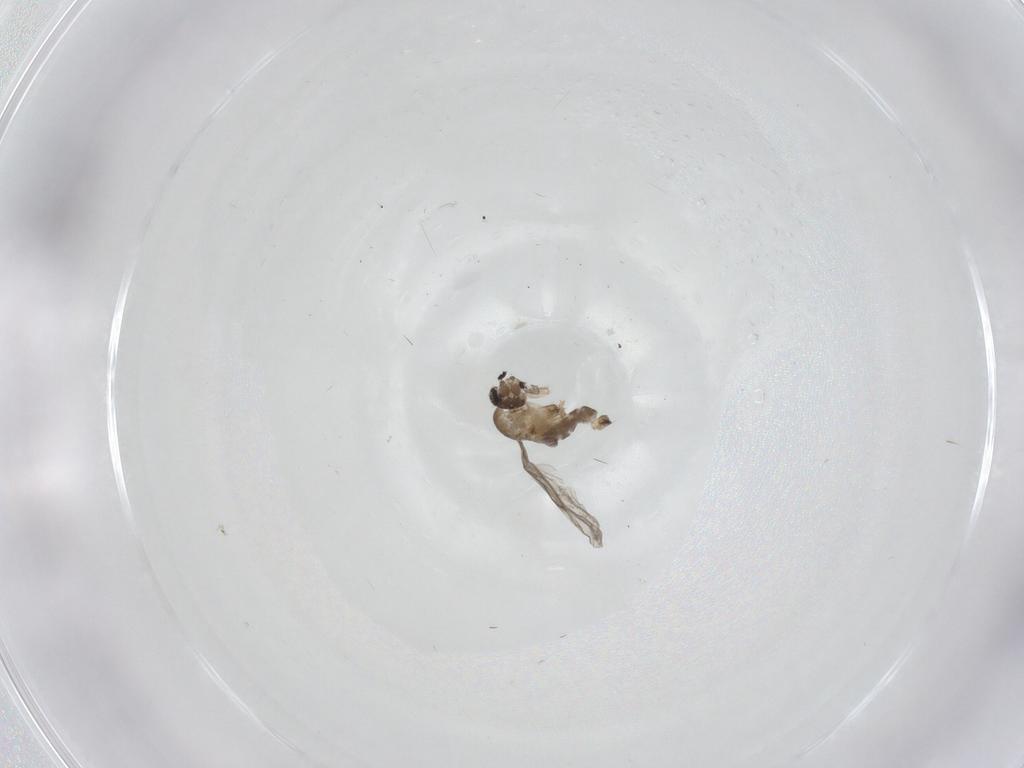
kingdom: Animalia
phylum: Arthropoda
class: Insecta
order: Diptera
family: Phoridae
